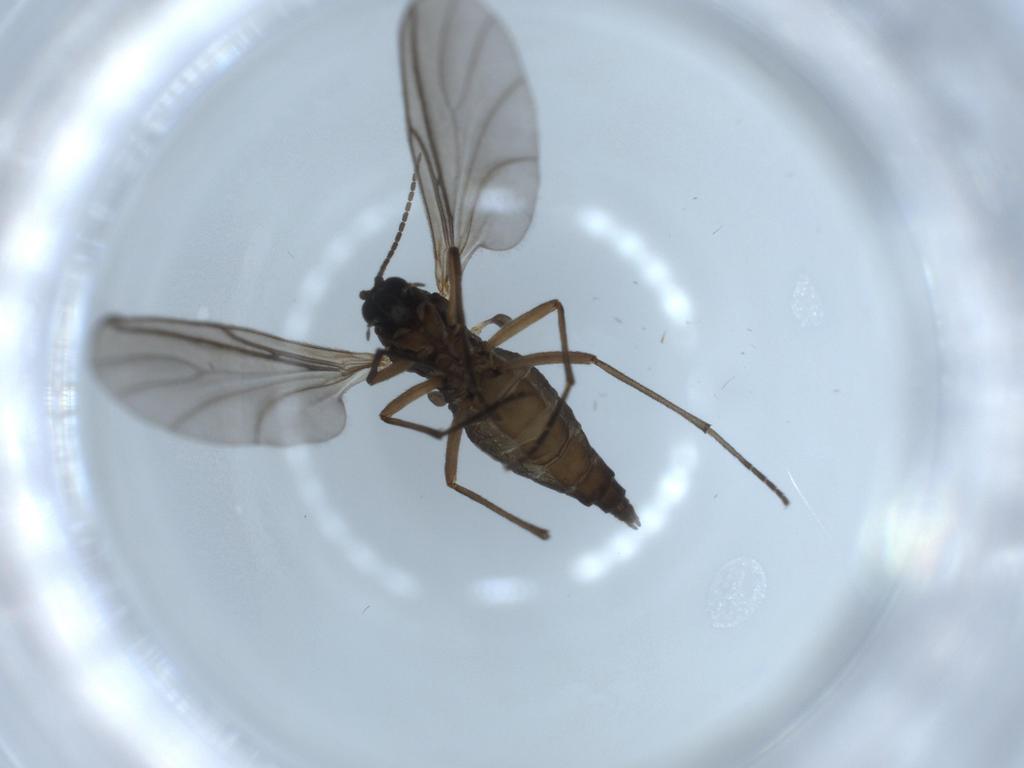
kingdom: Animalia
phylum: Arthropoda
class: Insecta
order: Diptera
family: Sciaridae
